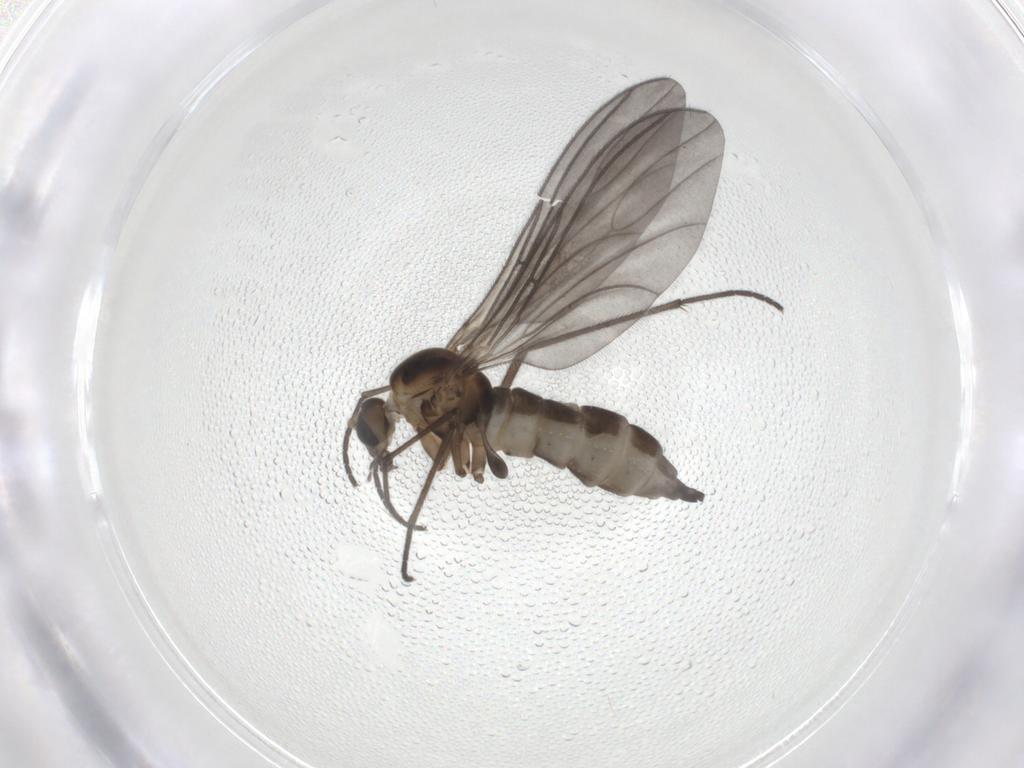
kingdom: Animalia
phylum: Arthropoda
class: Insecta
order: Diptera
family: Sciaridae
